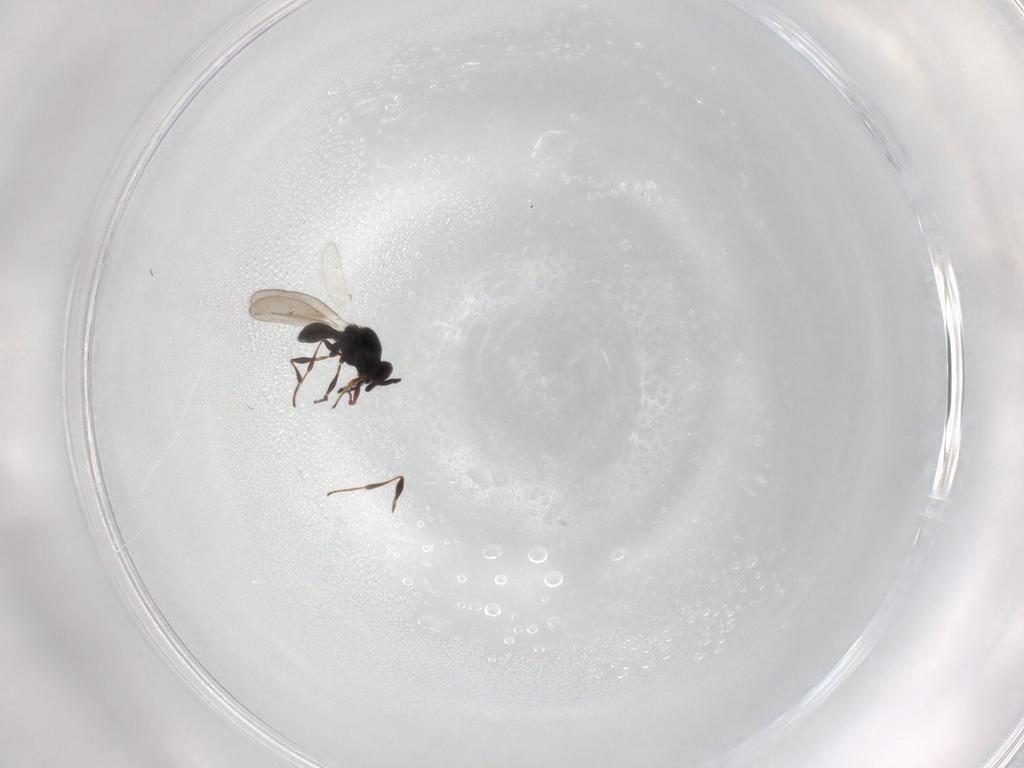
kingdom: Animalia
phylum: Arthropoda
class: Insecta
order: Hymenoptera
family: Platygastridae
